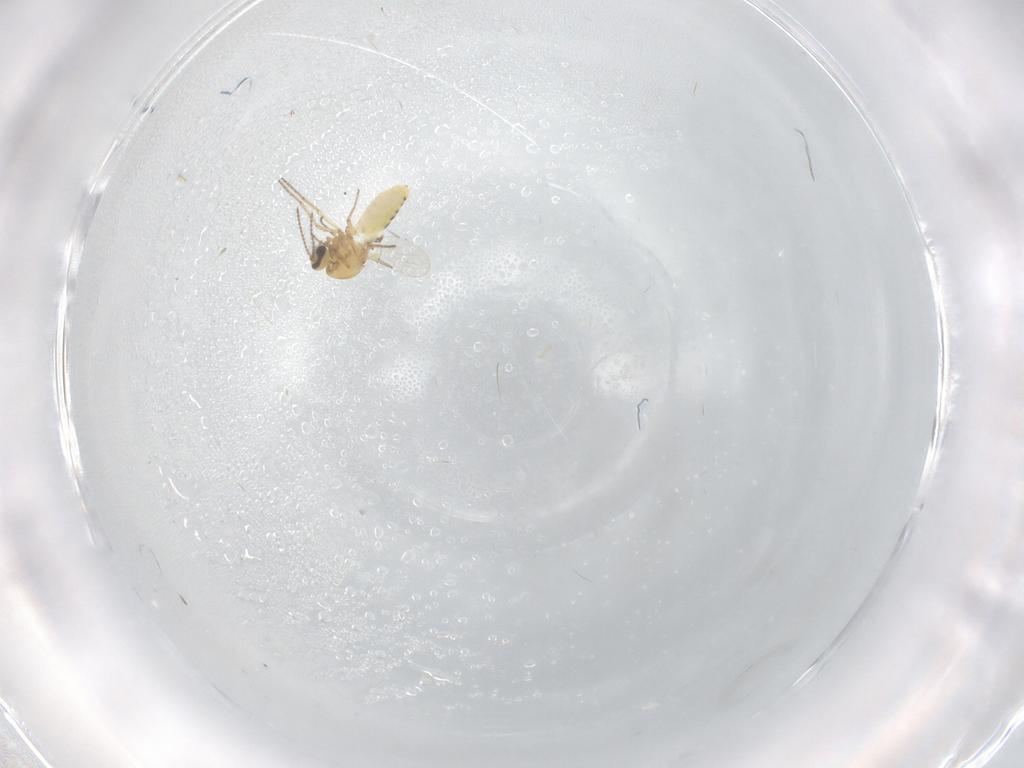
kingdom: Animalia
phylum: Arthropoda
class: Insecta
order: Diptera
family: Ceratopogonidae
